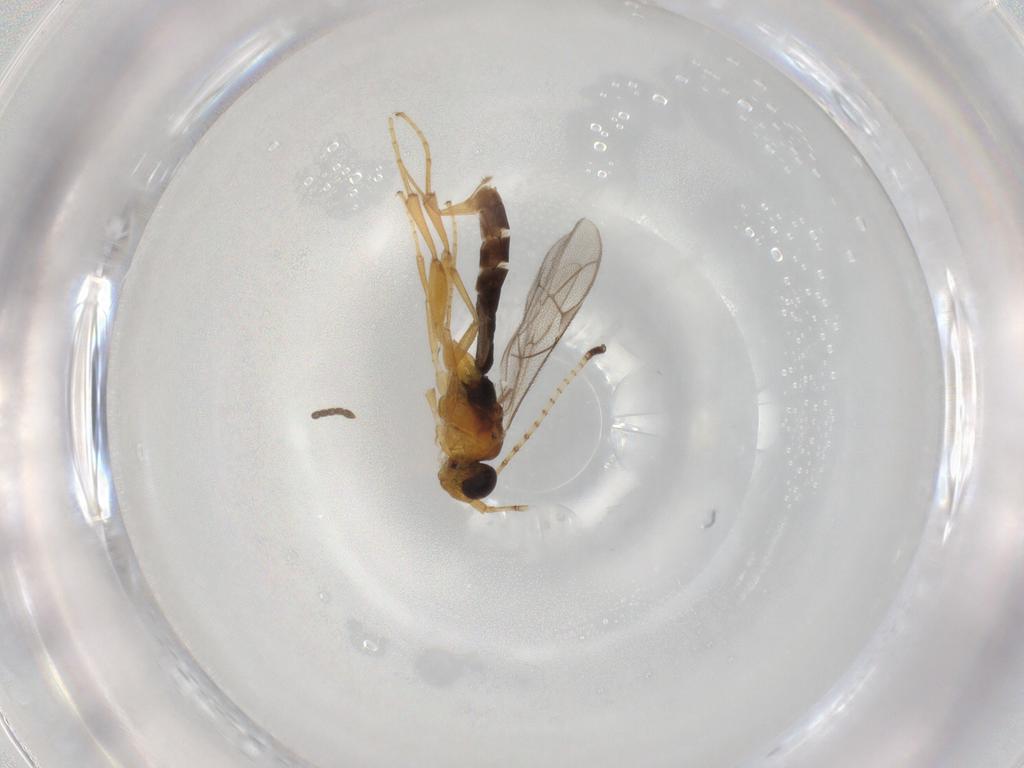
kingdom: Animalia
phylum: Arthropoda
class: Insecta
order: Hymenoptera
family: Ichneumonidae
